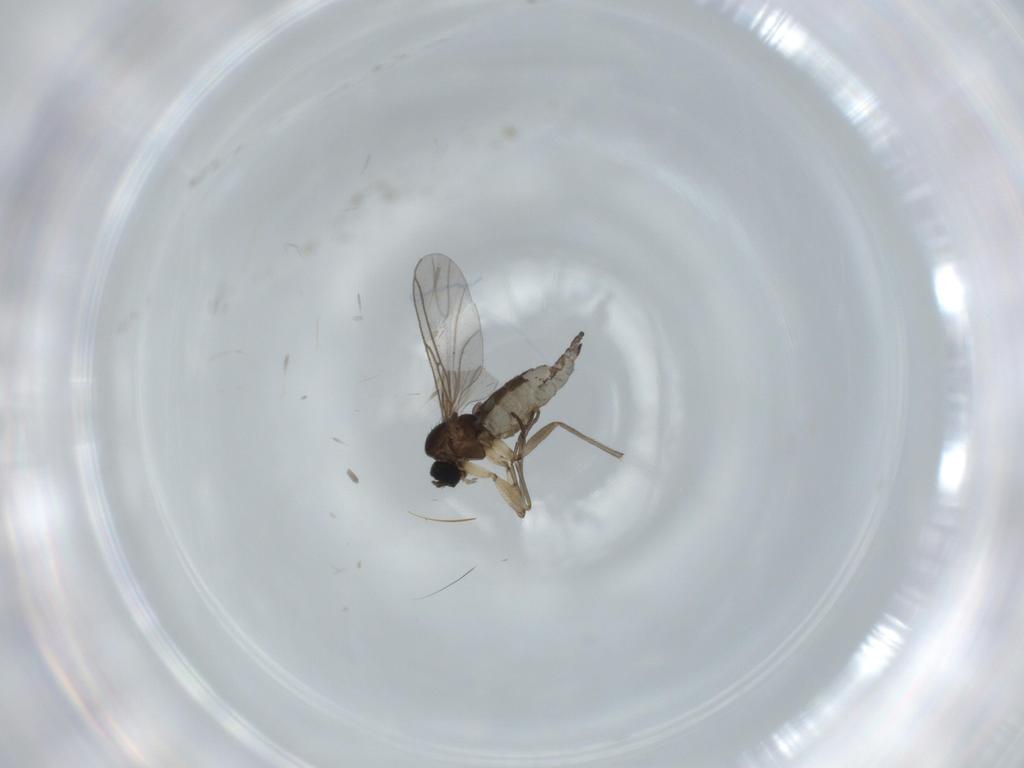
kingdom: Animalia
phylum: Arthropoda
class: Insecta
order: Diptera
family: Sciaridae
